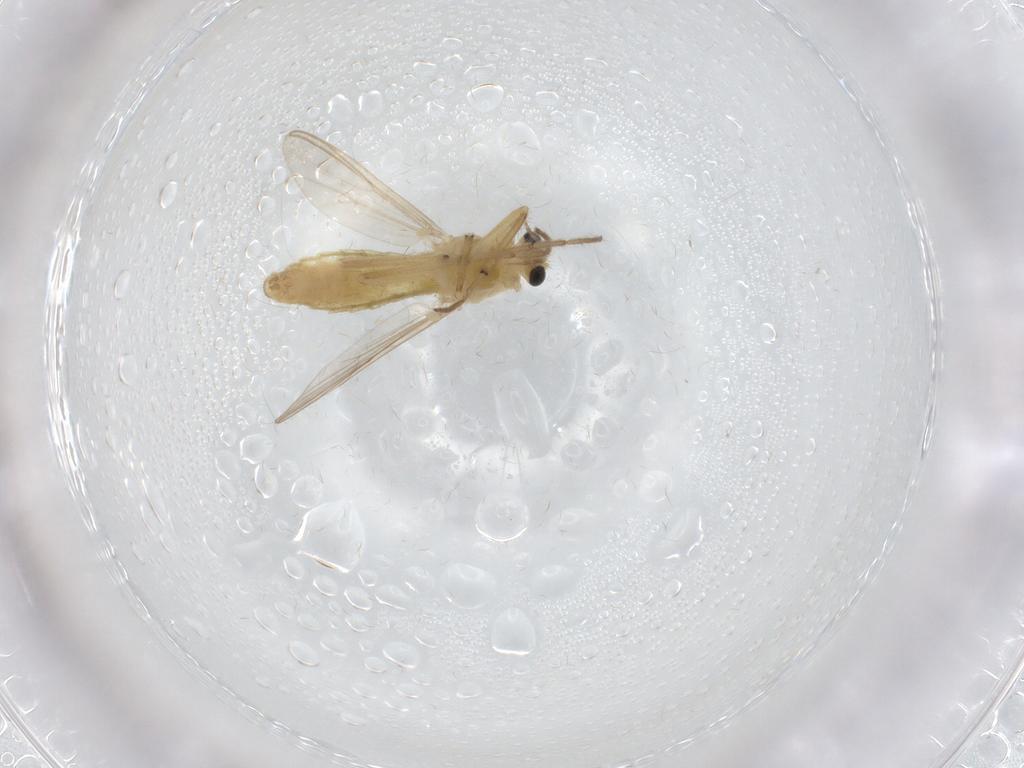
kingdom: Animalia
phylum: Arthropoda
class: Insecta
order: Diptera
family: Chironomidae
